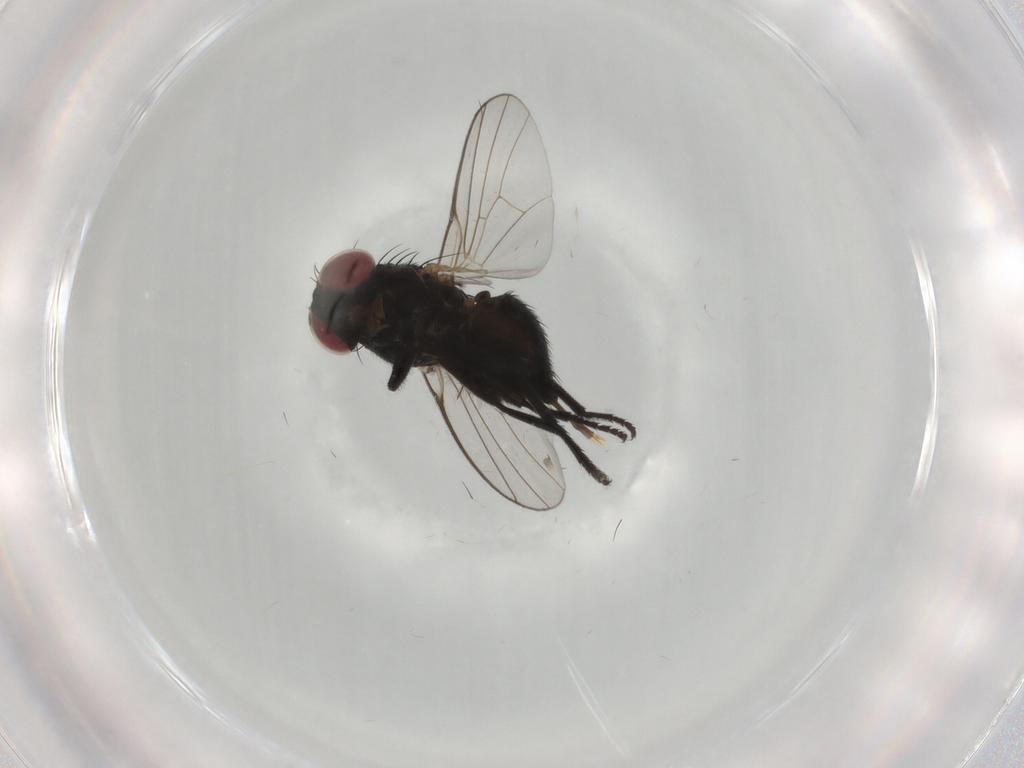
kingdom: Animalia
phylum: Arthropoda
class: Insecta
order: Diptera
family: Agromyzidae
